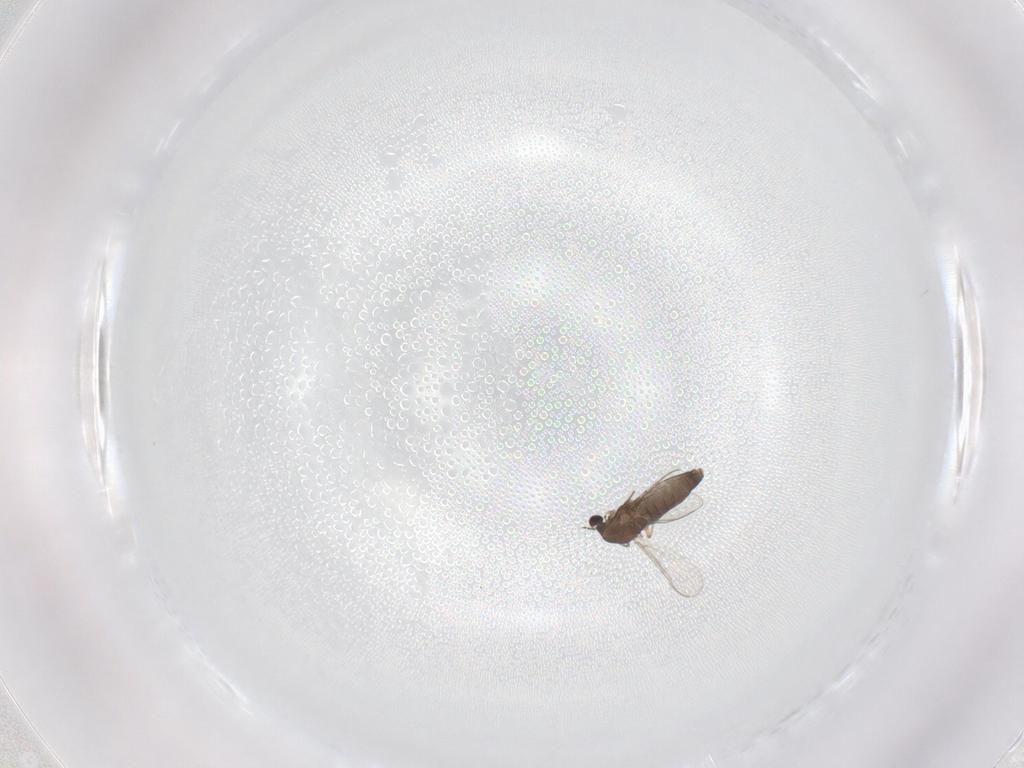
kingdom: Animalia
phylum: Arthropoda
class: Insecta
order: Diptera
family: Chironomidae
